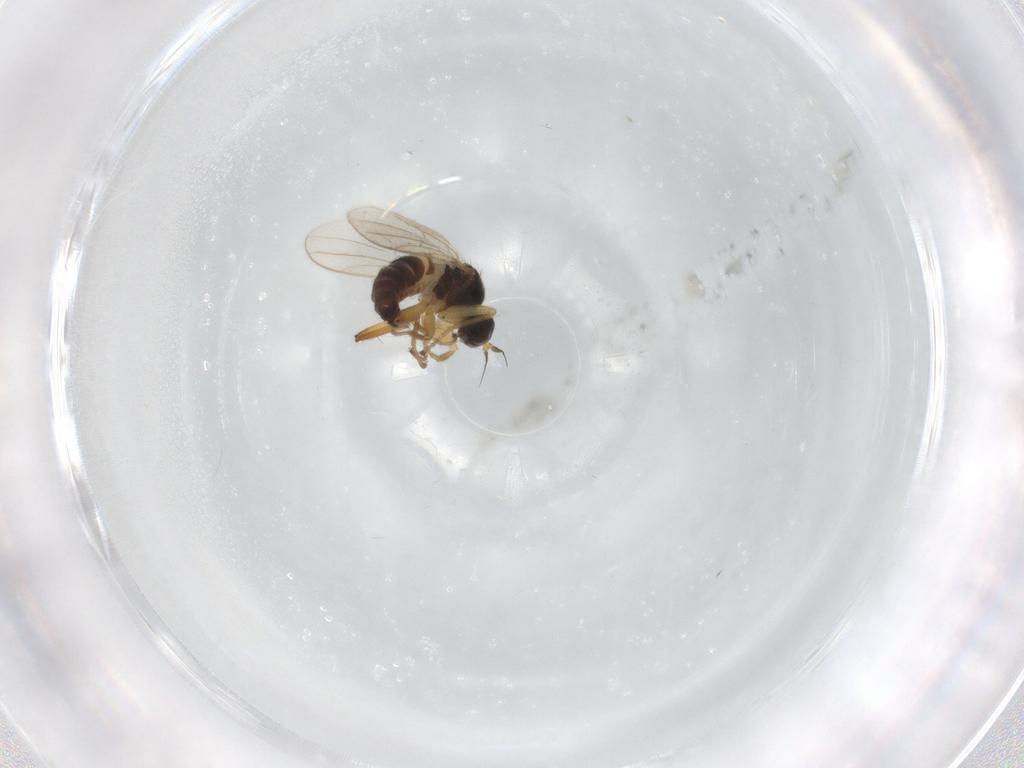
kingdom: Animalia
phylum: Arthropoda
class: Insecta
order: Diptera
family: Hybotidae
